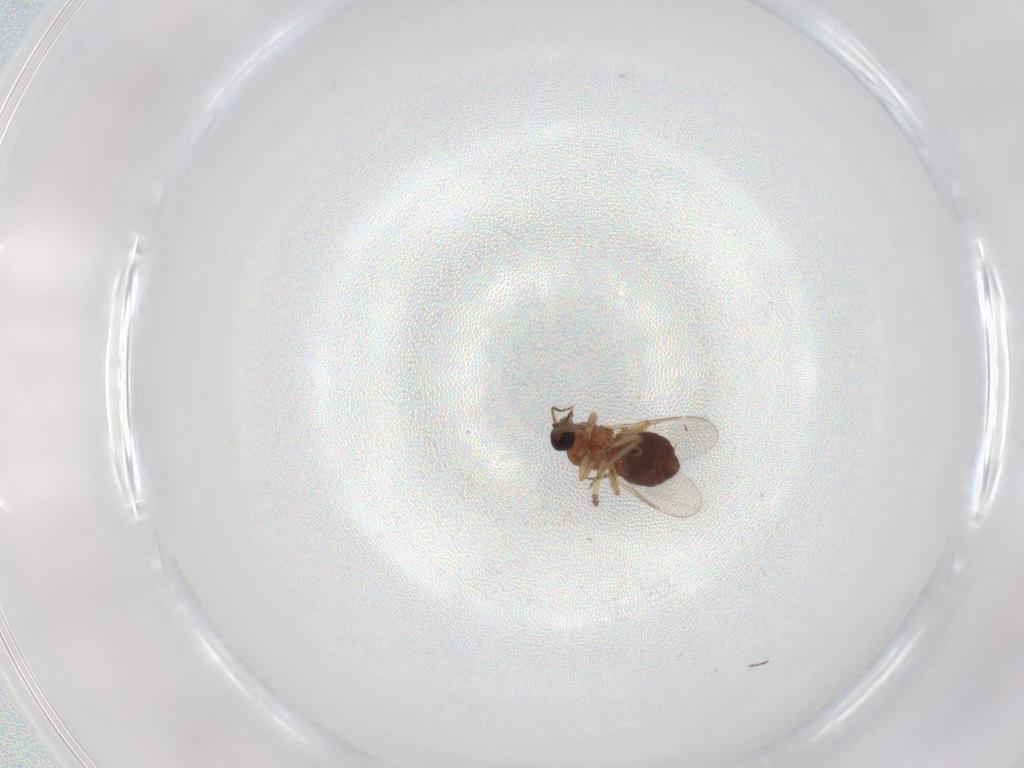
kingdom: Animalia
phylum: Arthropoda
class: Insecta
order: Diptera
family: Ceratopogonidae
